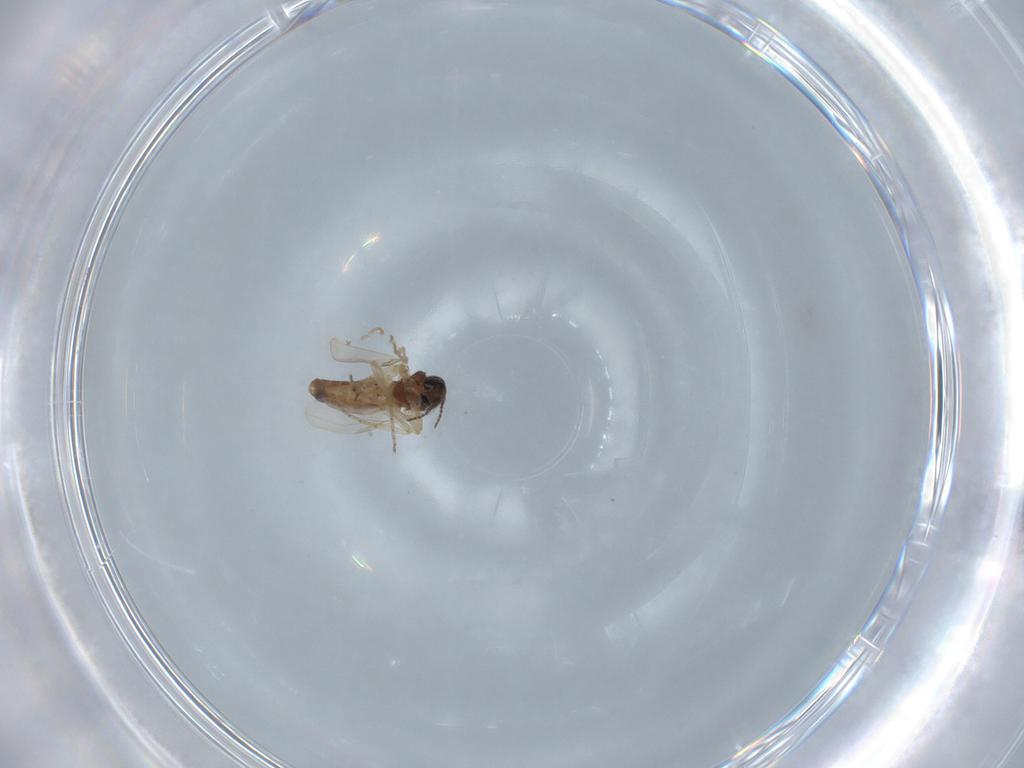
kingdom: Animalia
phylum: Arthropoda
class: Insecta
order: Diptera
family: Ceratopogonidae
